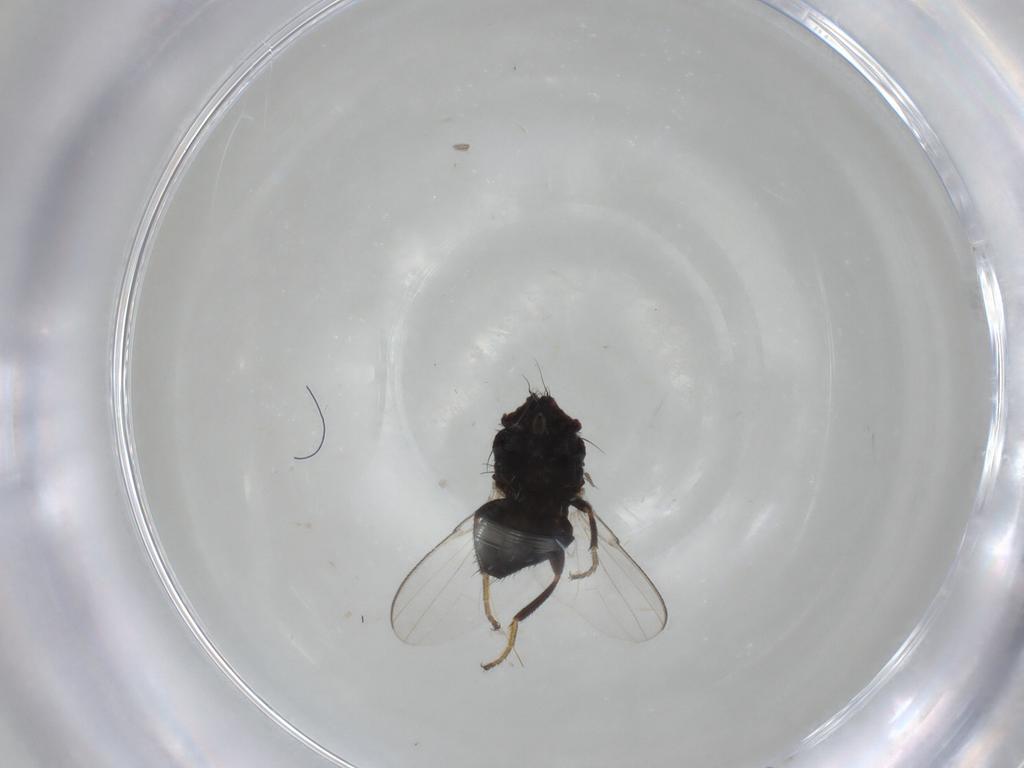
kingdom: Animalia
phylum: Arthropoda
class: Insecta
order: Diptera
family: Milichiidae
